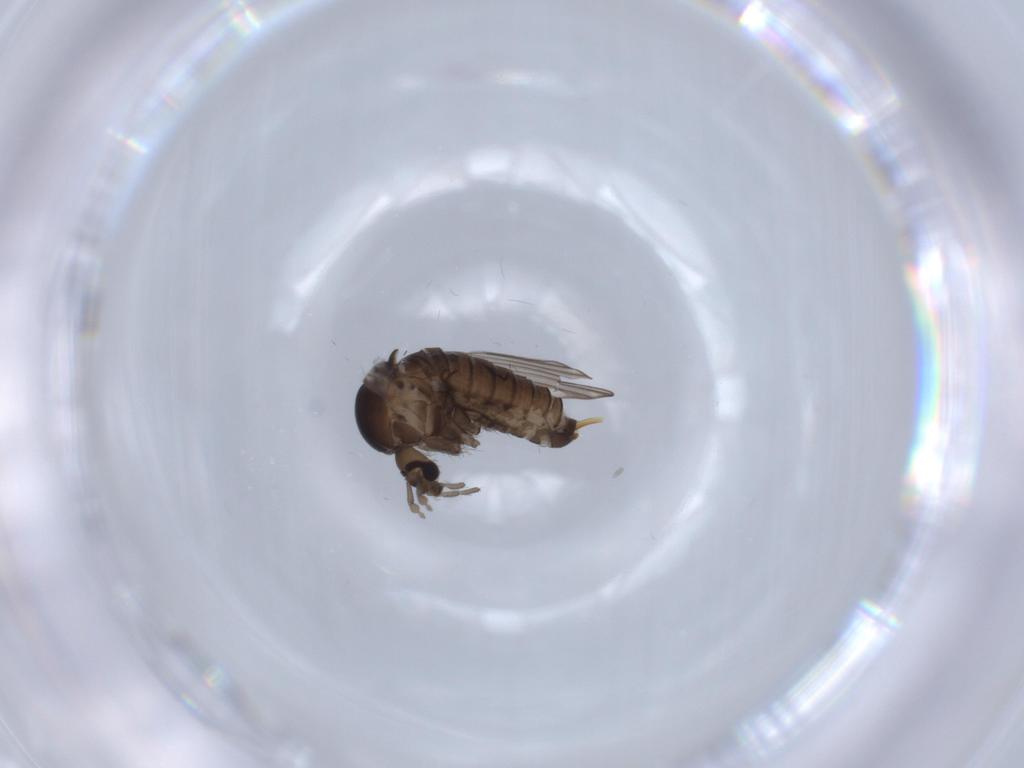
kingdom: Animalia
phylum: Arthropoda
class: Insecta
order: Diptera
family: Psychodidae
